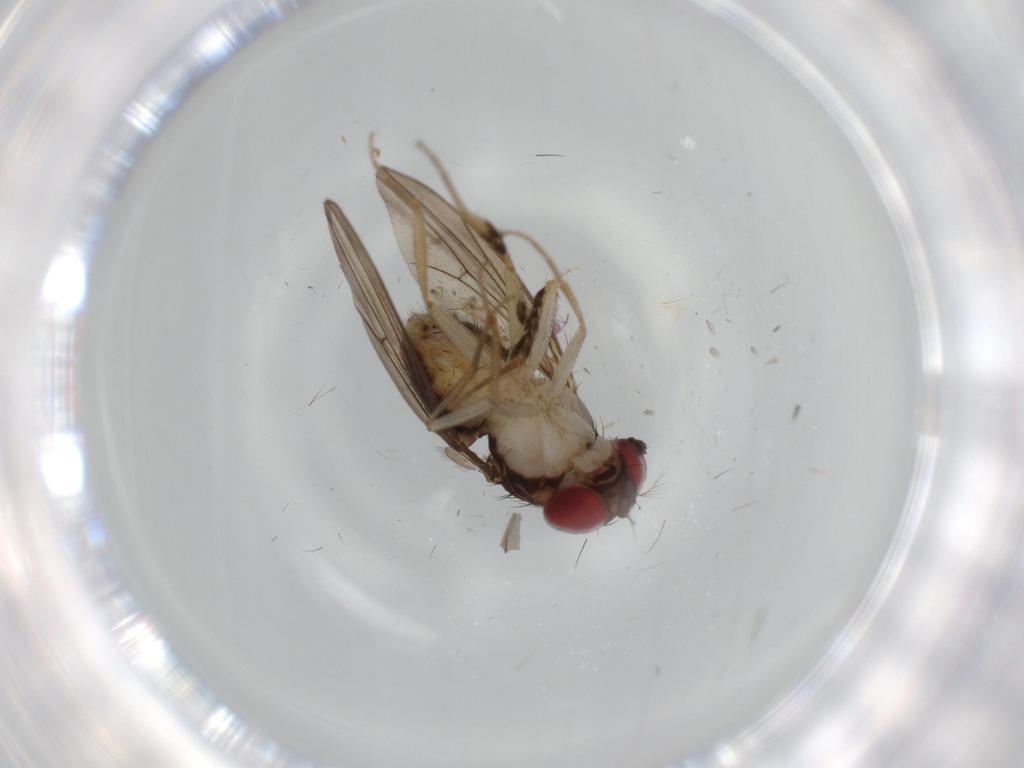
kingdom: Animalia
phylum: Arthropoda
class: Insecta
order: Diptera
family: Drosophilidae
